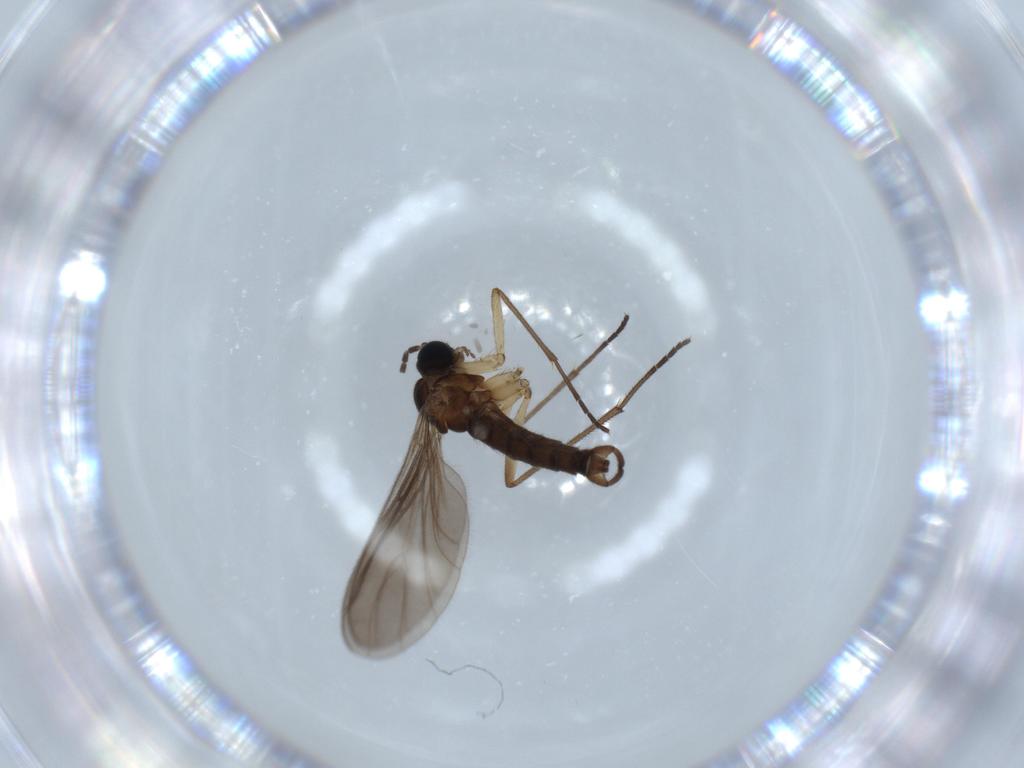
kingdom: Animalia
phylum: Arthropoda
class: Insecta
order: Diptera
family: Sciaridae
